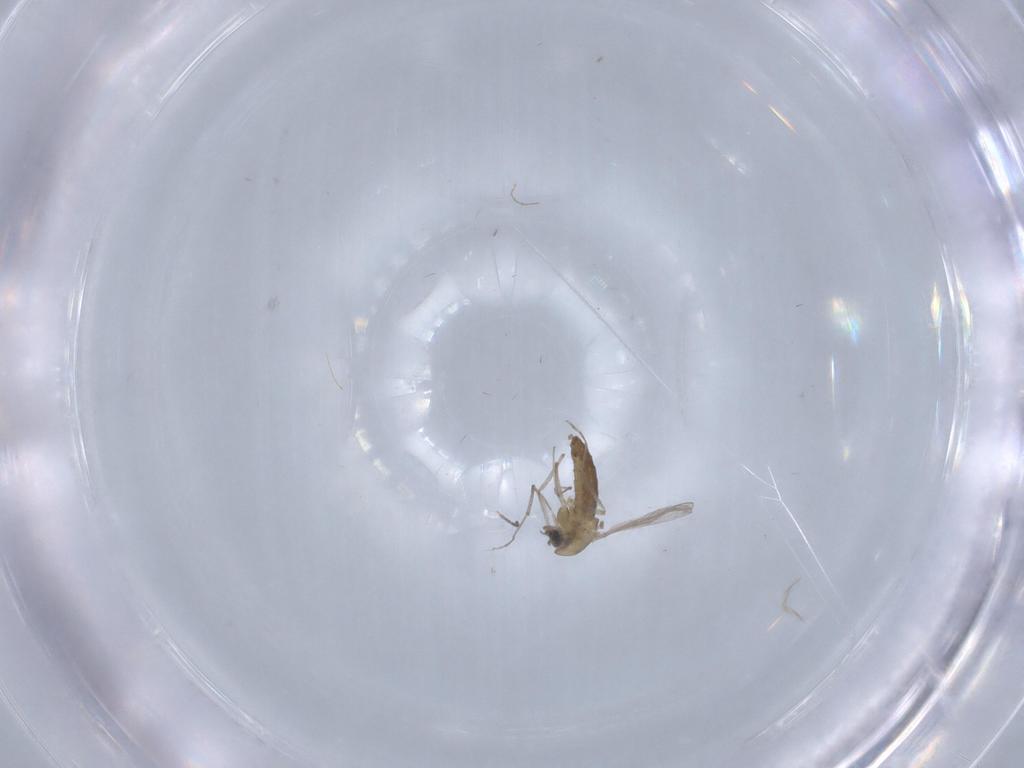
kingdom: Animalia
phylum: Arthropoda
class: Insecta
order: Diptera
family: Chironomidae
